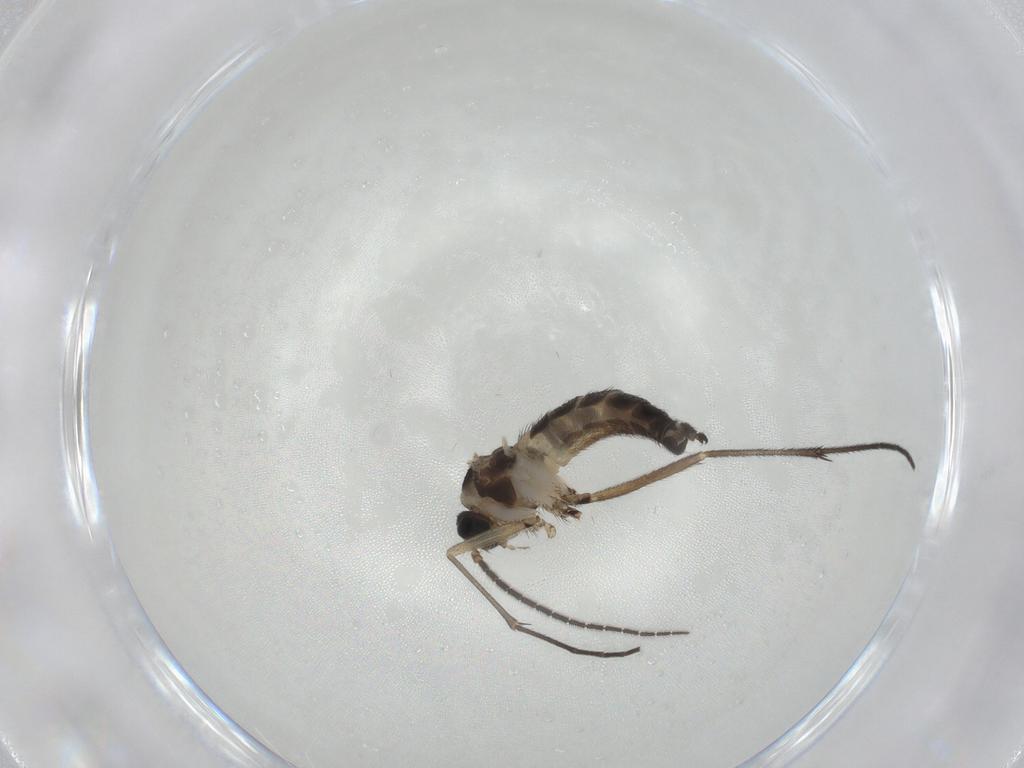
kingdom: Animalia
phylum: Arthropoda
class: Insecta
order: Diptera
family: Sciaridae
